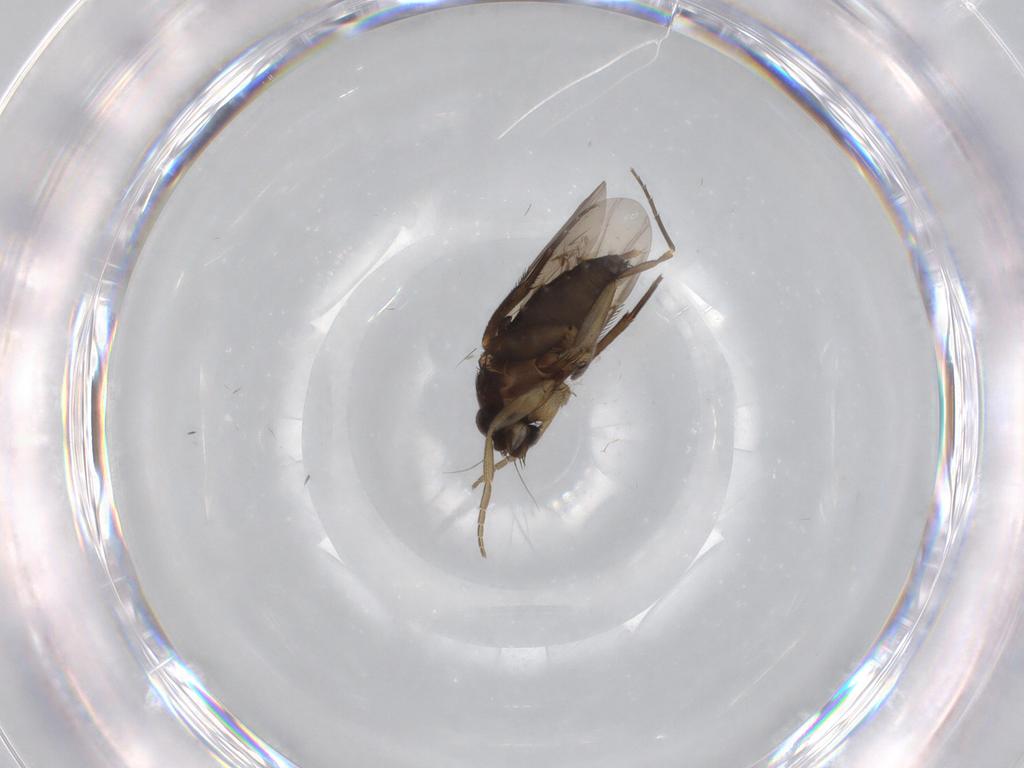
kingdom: Animalia
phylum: Arthropoda
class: Insecta
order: Diptera
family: Phoridae
